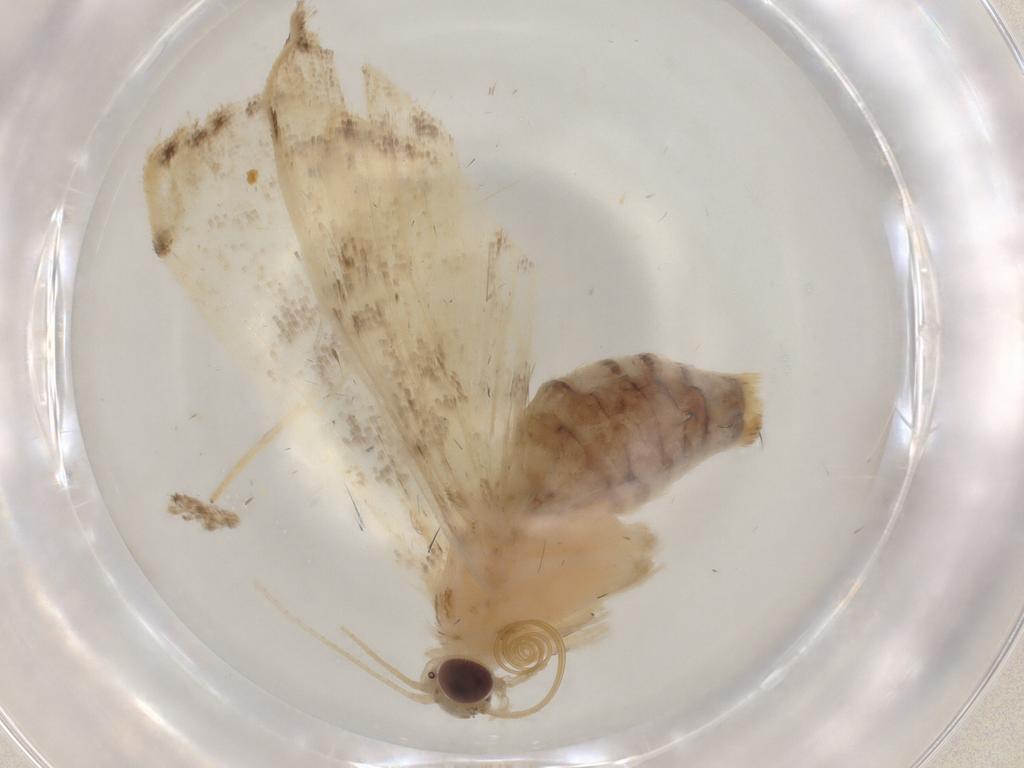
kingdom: Animalia
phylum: Arthropoda
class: Insecta
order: Lepidoptera
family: Crambidae
